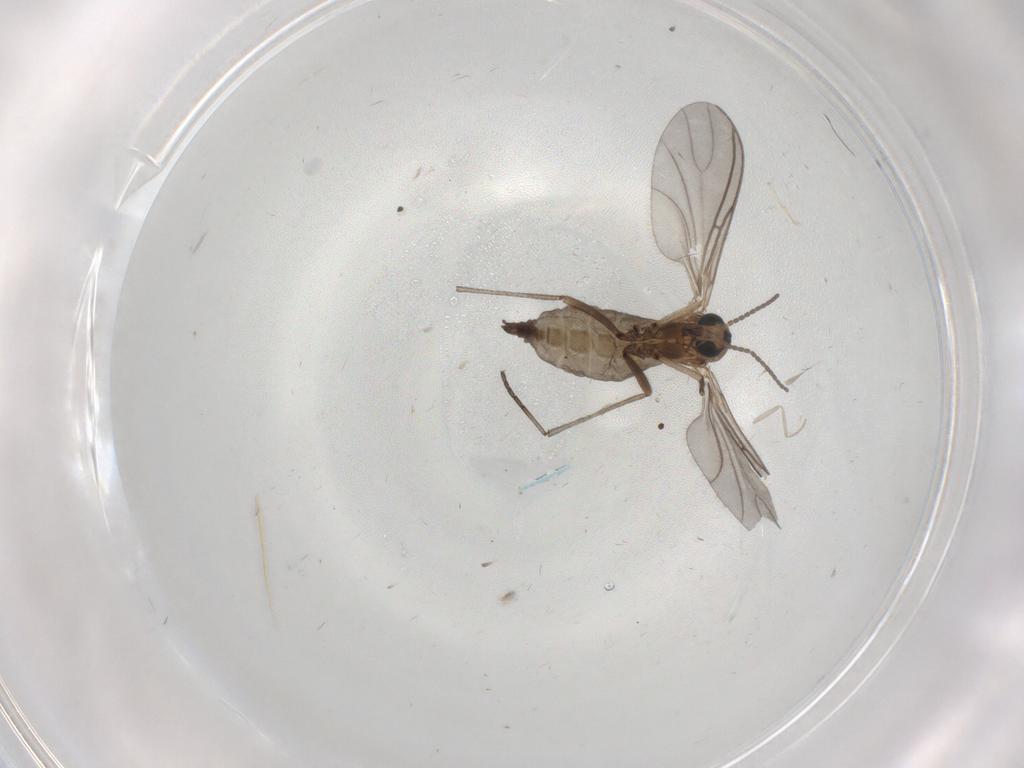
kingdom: Animalia
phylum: Arthropoda
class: Insecta
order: Diptera
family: Sciaridae
